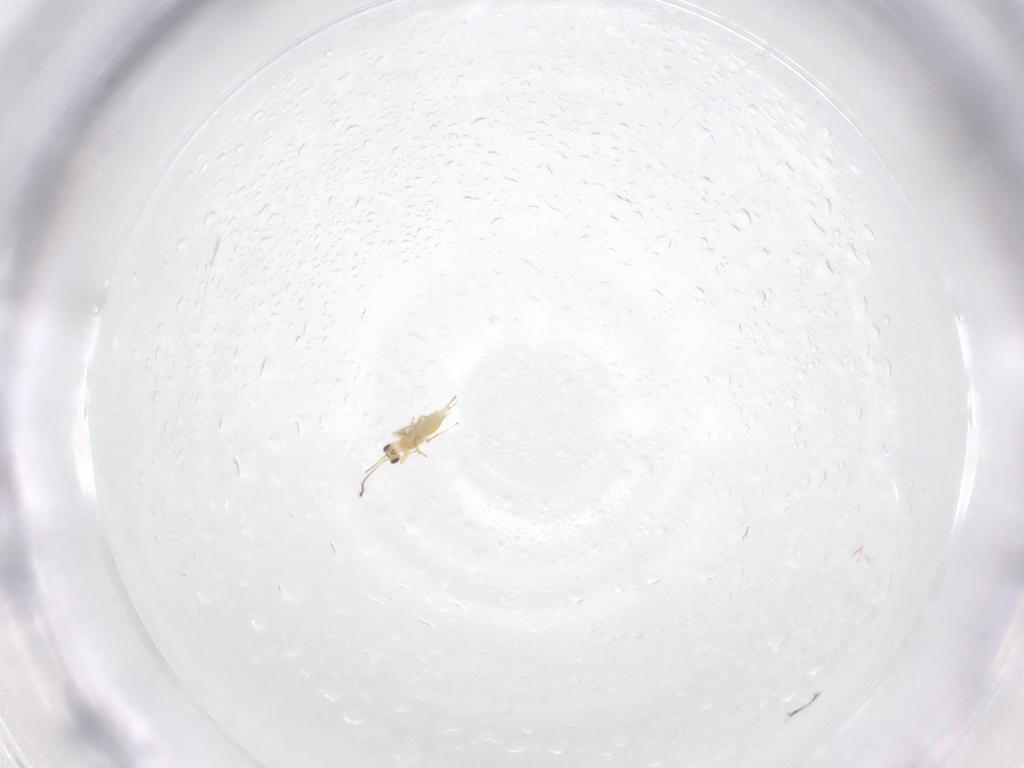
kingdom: Animalia
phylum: Arthropoda
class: Insecta
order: Hymenoptera
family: Mymaridae
